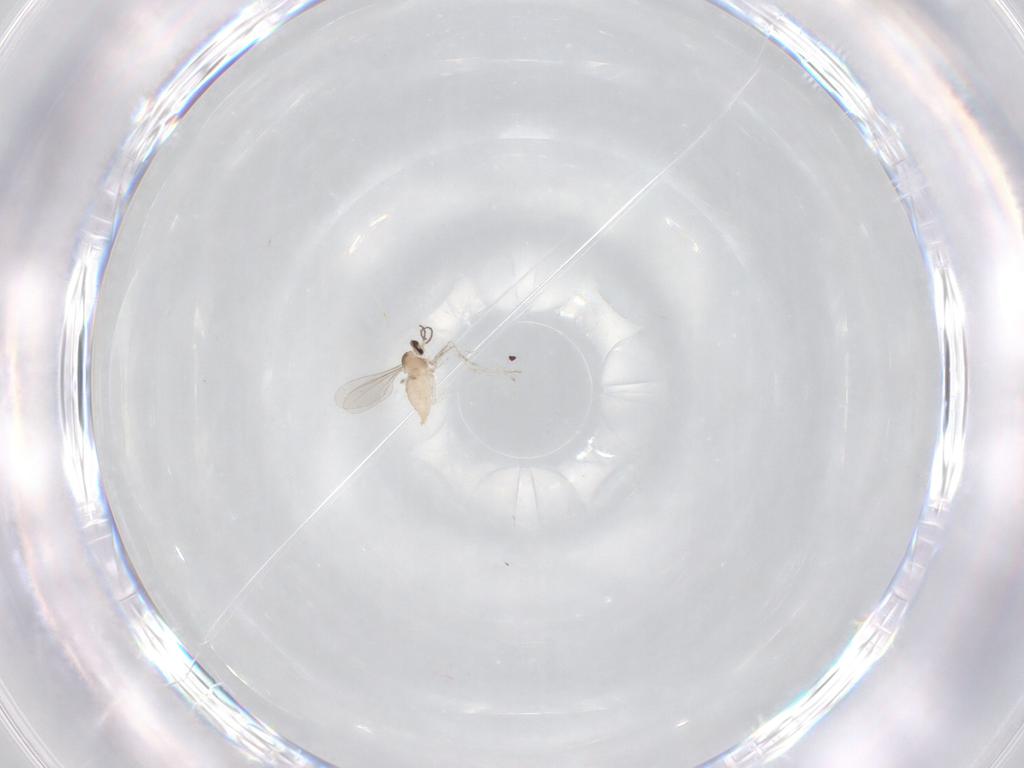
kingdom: Animalia
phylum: Arthropoda
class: Insecta
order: Diptera
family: Cecidomyiidae
